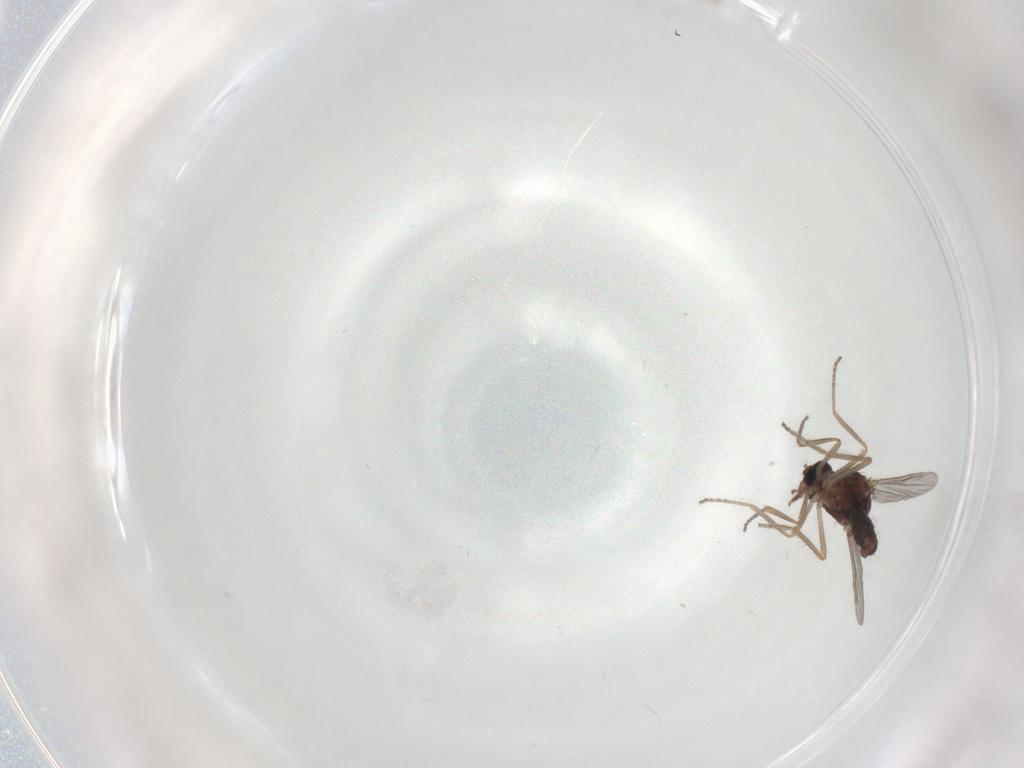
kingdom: Animalia
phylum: Arthropoda
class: Insecta
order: Diptera
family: Ceratopogonidae
